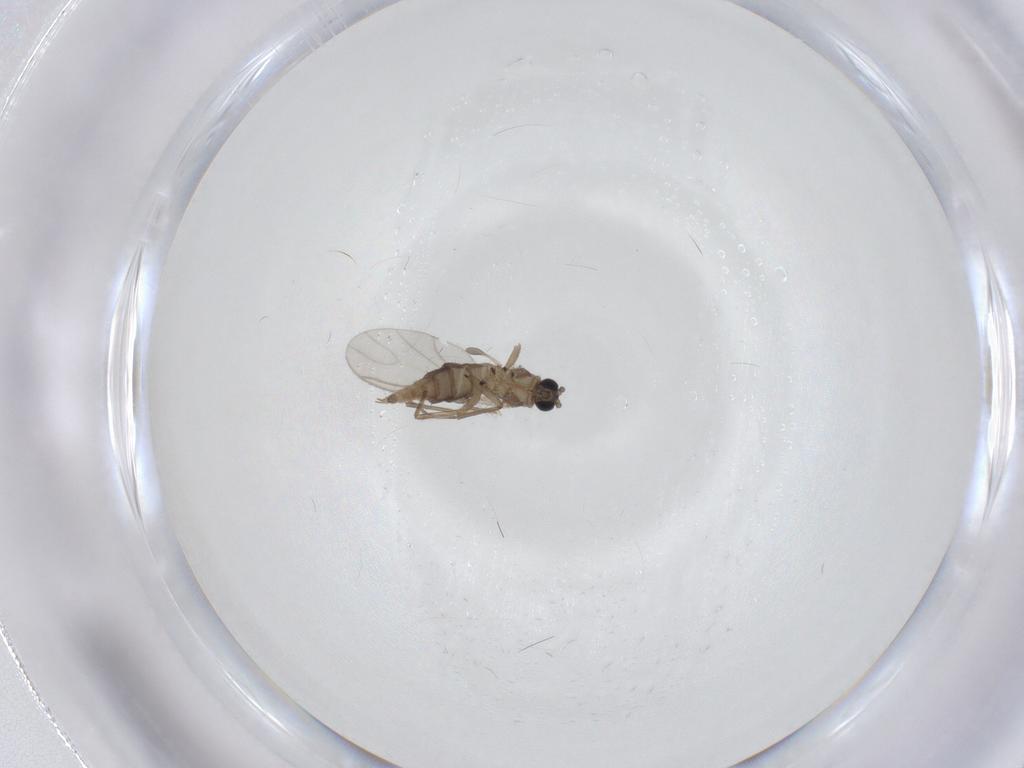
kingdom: Animalia
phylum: Arthropoda
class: Insecta
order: Diptera
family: Sciaridae
